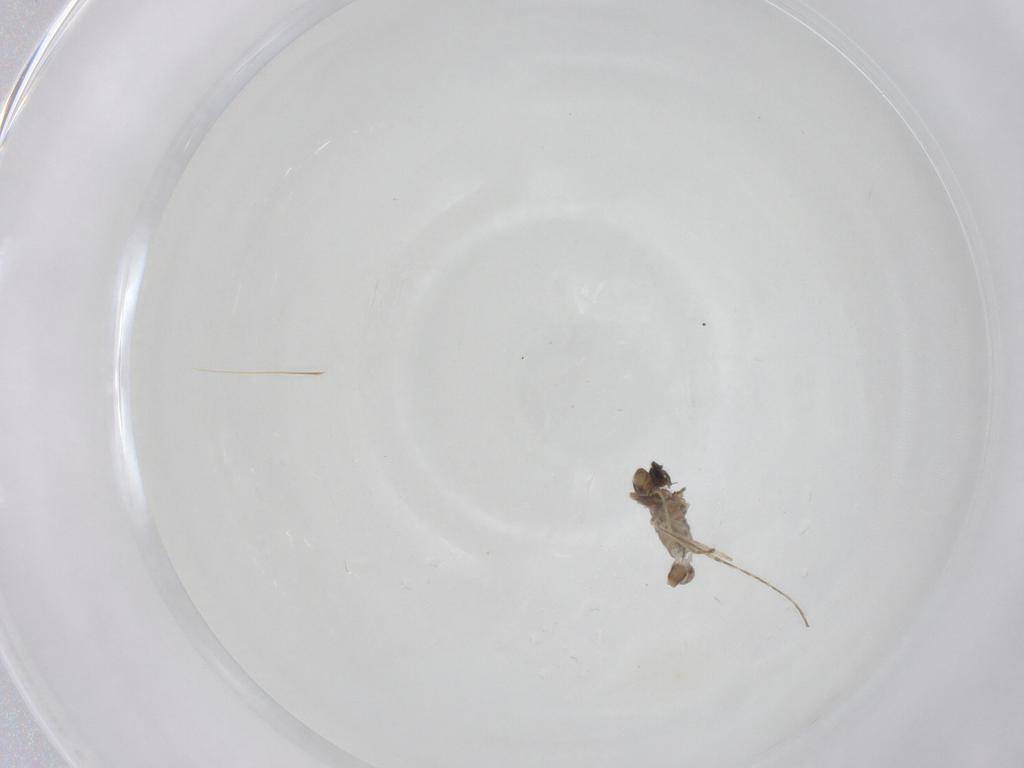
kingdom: Animalia
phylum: Arthropoda
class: Insecta
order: Diptera
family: Cecidomyiidae
